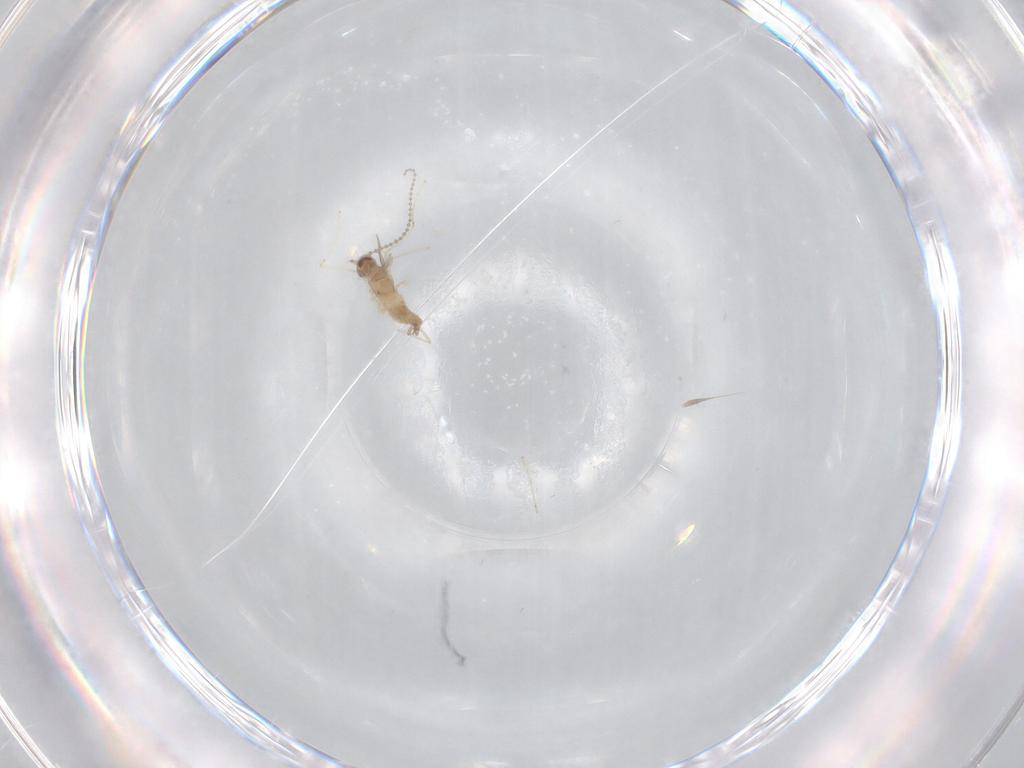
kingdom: Animalia
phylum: Arthropoda
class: Insecta
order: Diptera
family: Cecidomyiidae
